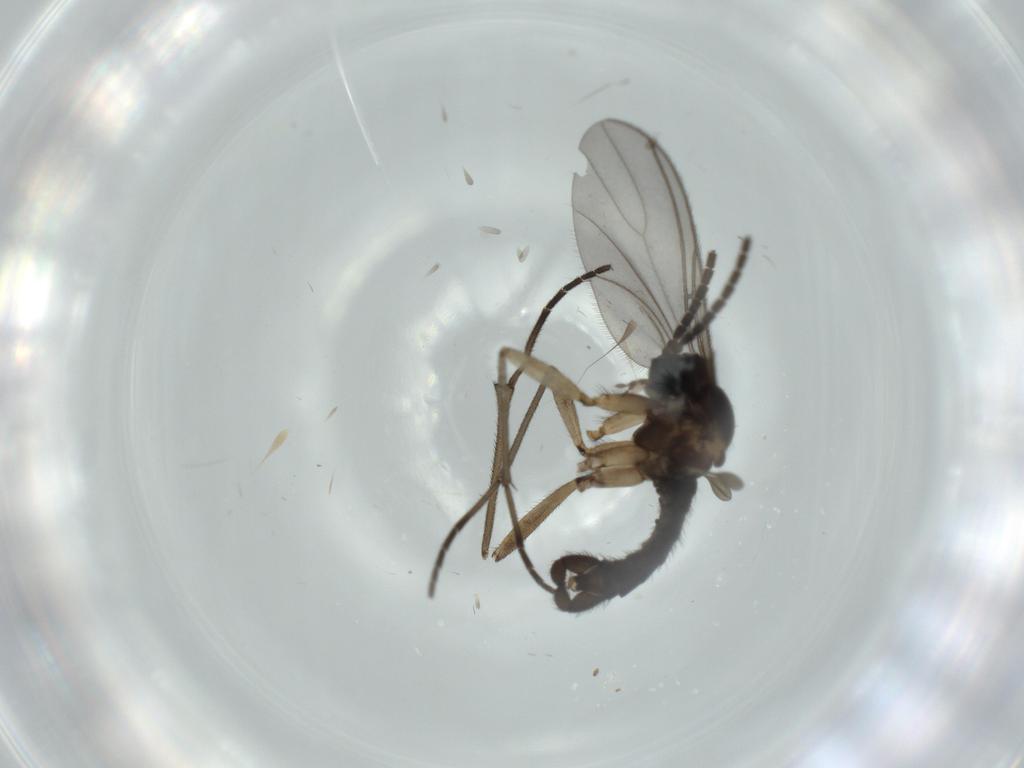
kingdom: Animalia
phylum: Arthropoda
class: Insecta
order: Diptera
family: Sciaridae
